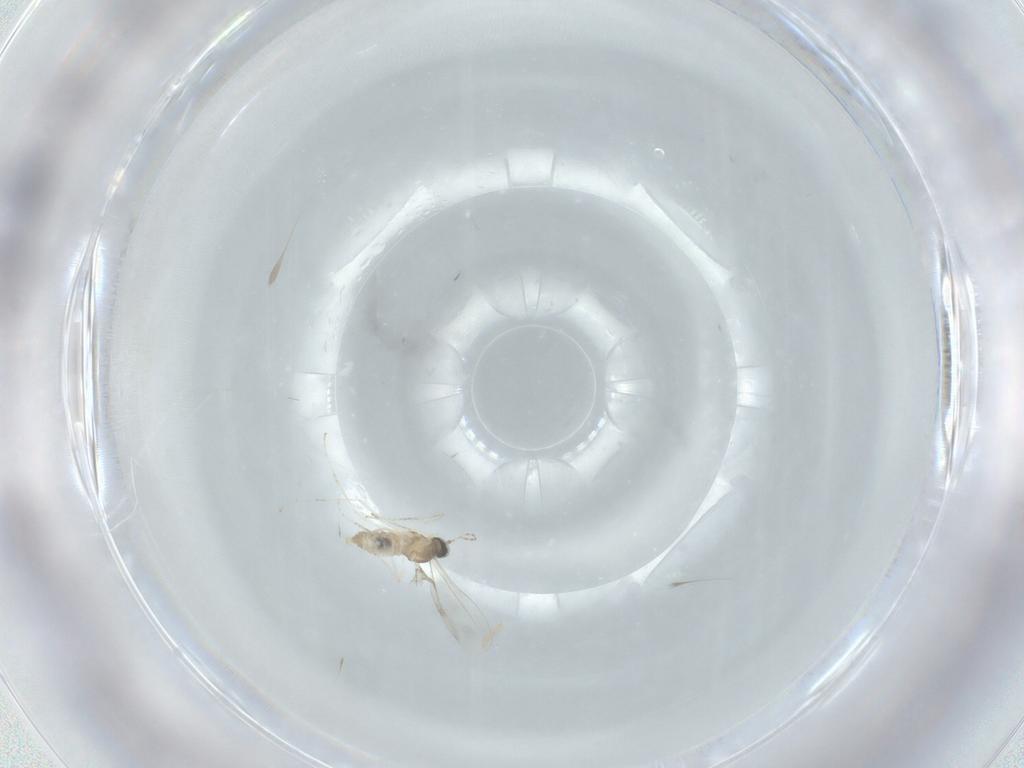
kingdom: Animalia
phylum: Arthropoda
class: Insecta
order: Diptera
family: Cecidomyiidae
